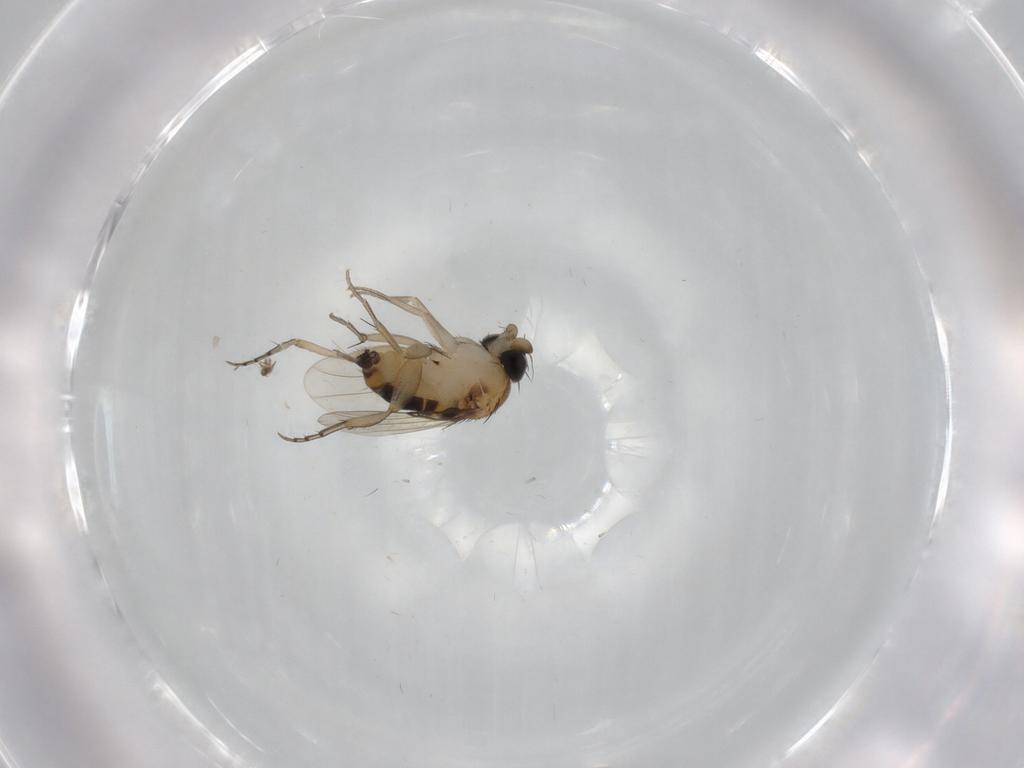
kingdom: Animalia
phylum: Arthropoda
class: Insecta
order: Diptera
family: Phoridae
